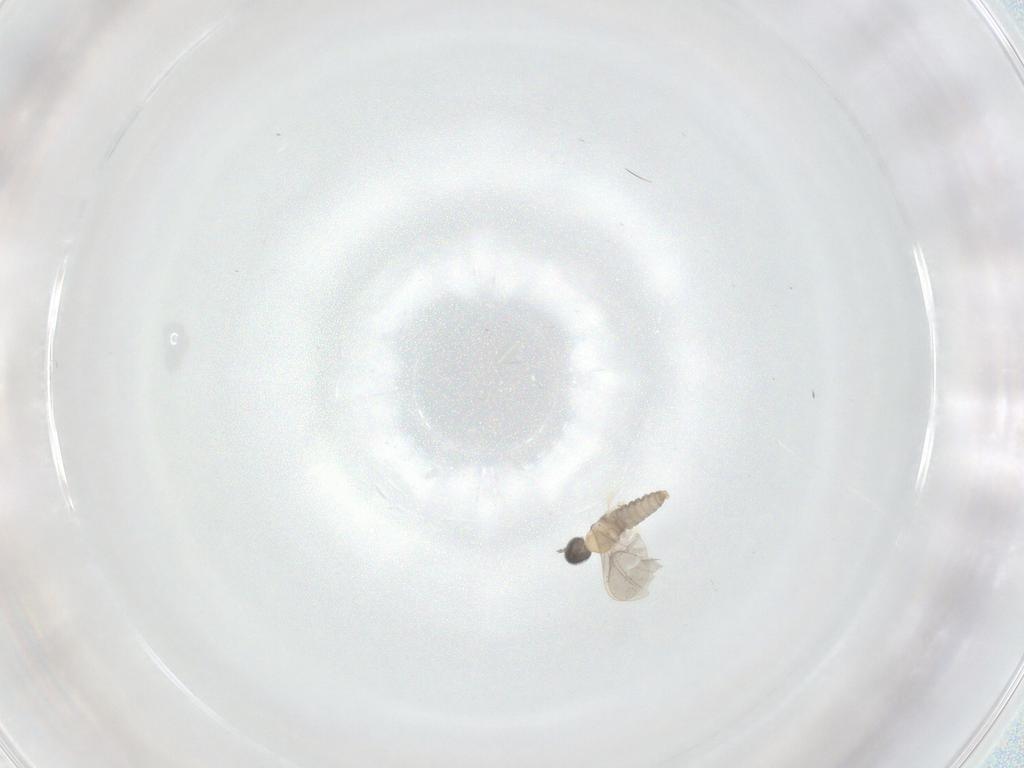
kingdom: Animalia
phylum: Arthropoda
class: Insecta
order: Diptera
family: Cecidomyiidae
